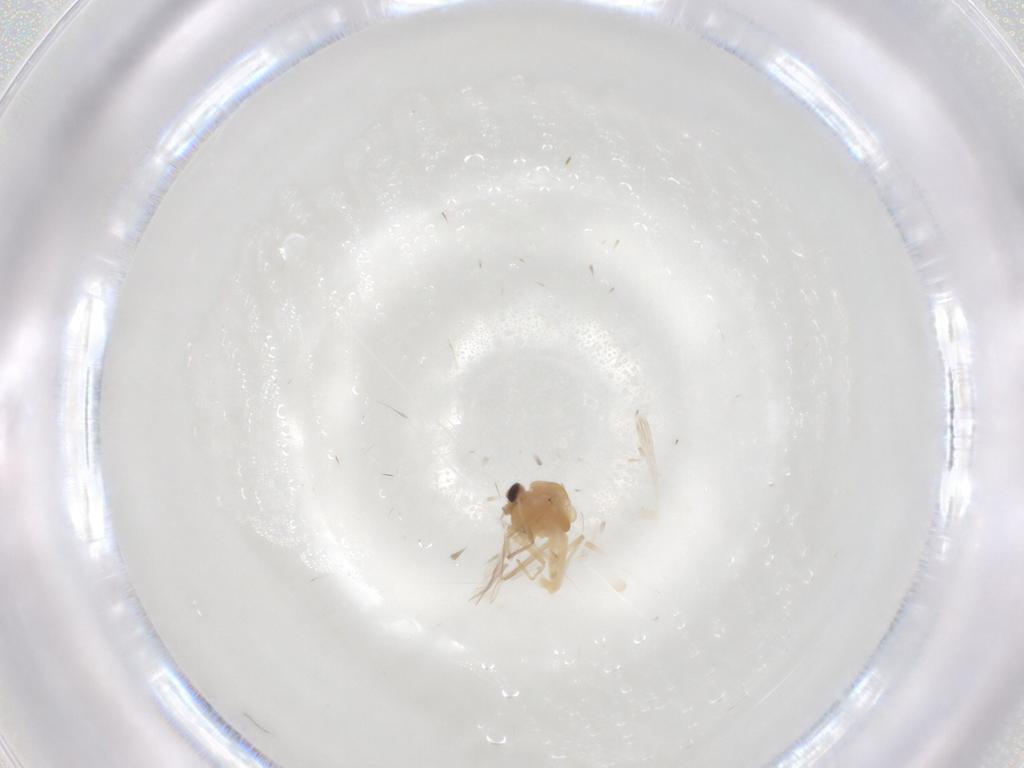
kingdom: Animalia
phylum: Arthropoda
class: Insecta
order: Diptera
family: Chironomidae
